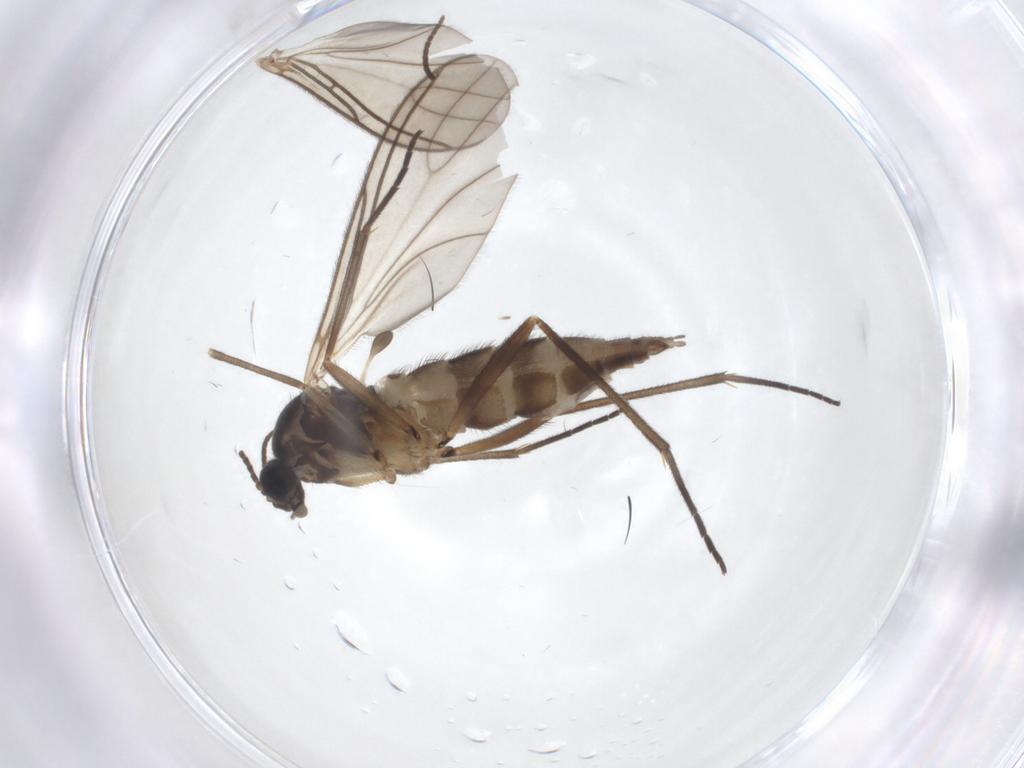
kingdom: Animalia
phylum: Arthropoda
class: Insecta
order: Diptera
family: Sciaridae
